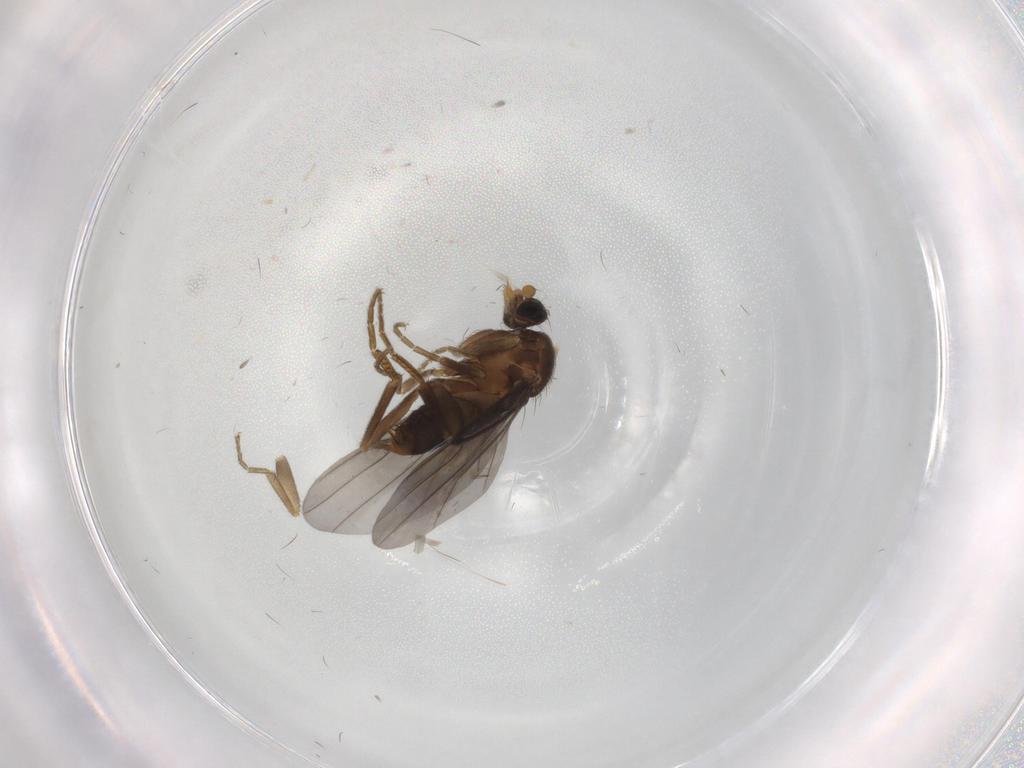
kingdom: Animalia
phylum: Arthropoda
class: Insecta
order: Diptera
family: Phoridae
